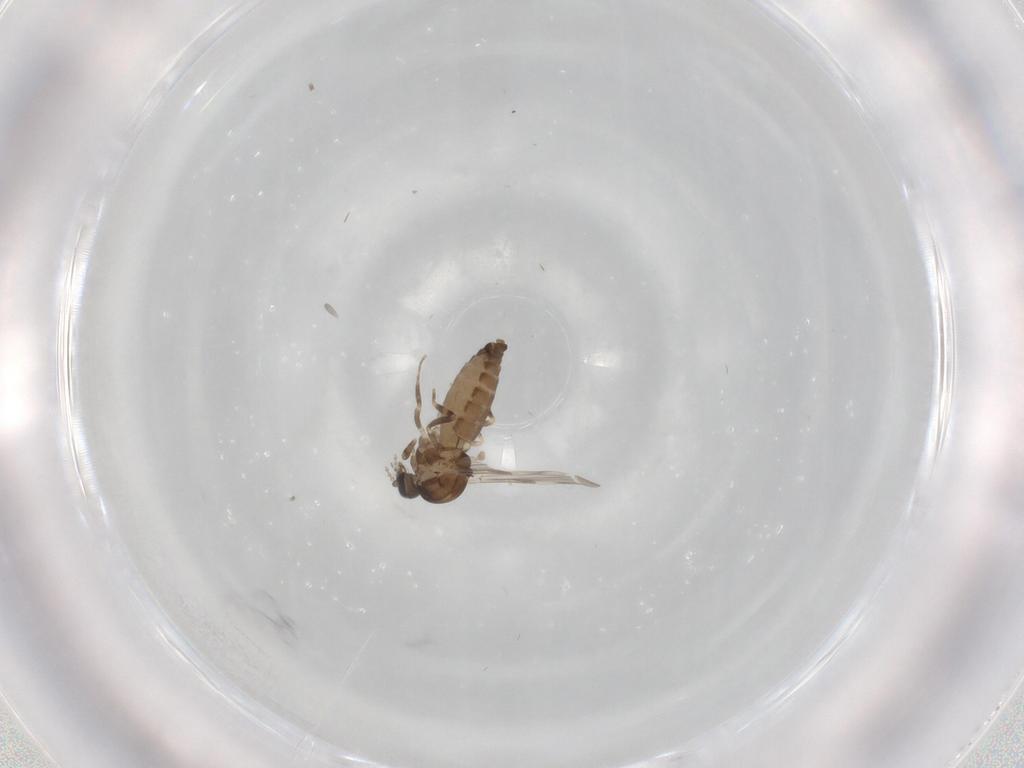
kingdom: Animalia
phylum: Arthropoda
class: Insecta
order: Diptera
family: Ceratopogonidae
